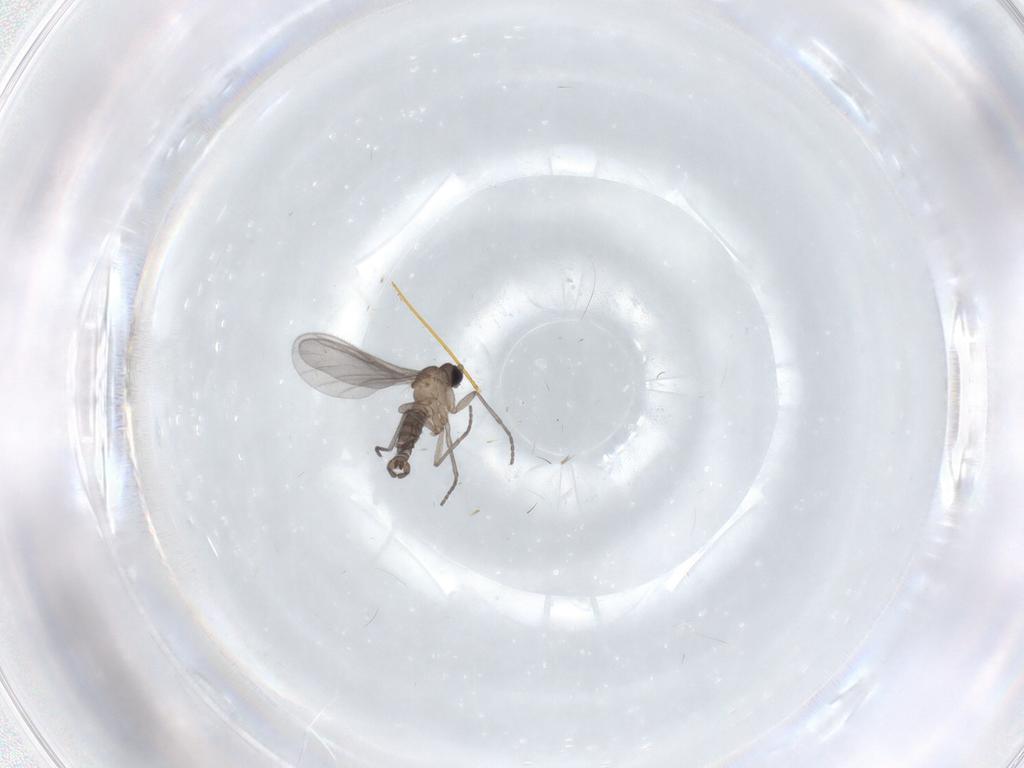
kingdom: Animalia
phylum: Arthropoda
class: Insecta
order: Diptera
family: Sciaridae
